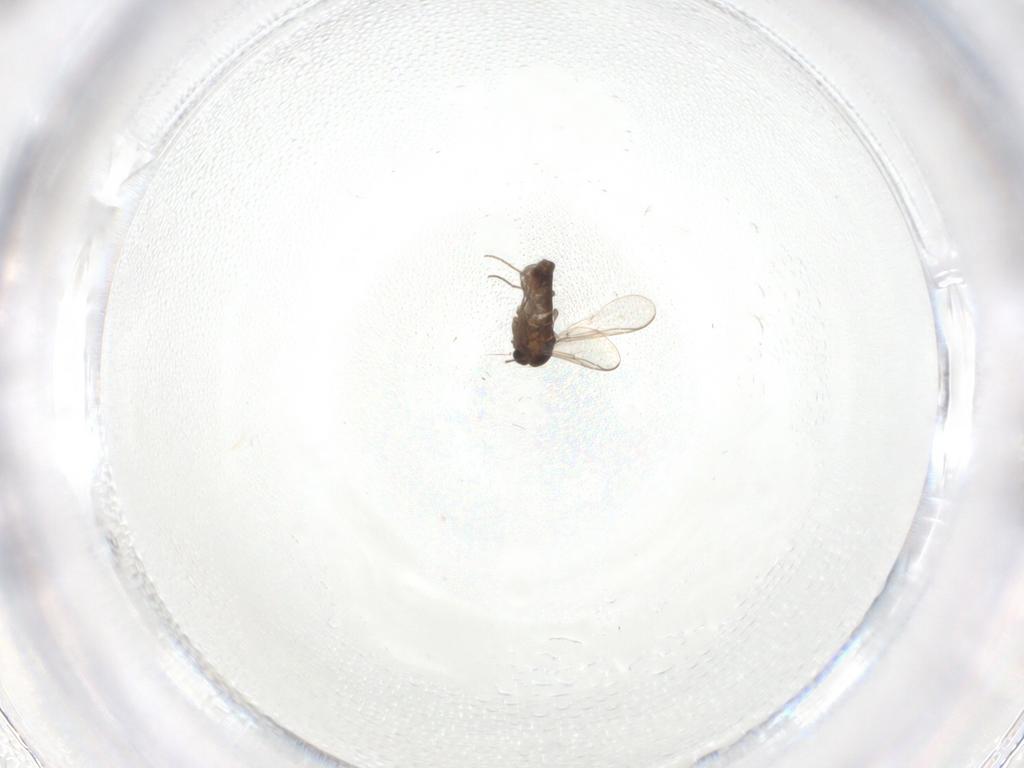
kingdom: Animalia
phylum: Arthropoda
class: Insecta
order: Diptera
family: Chironomidae
